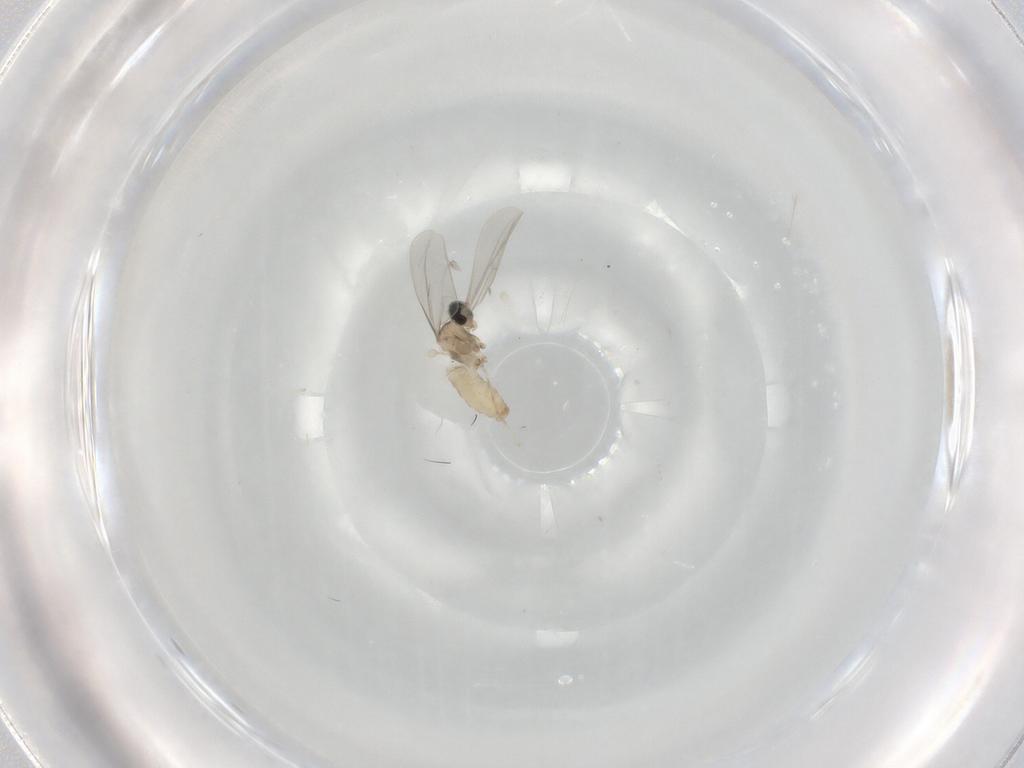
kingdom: Animalia
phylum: Arthropoda
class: Insecta
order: Diptera
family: Cecidomyiidae
